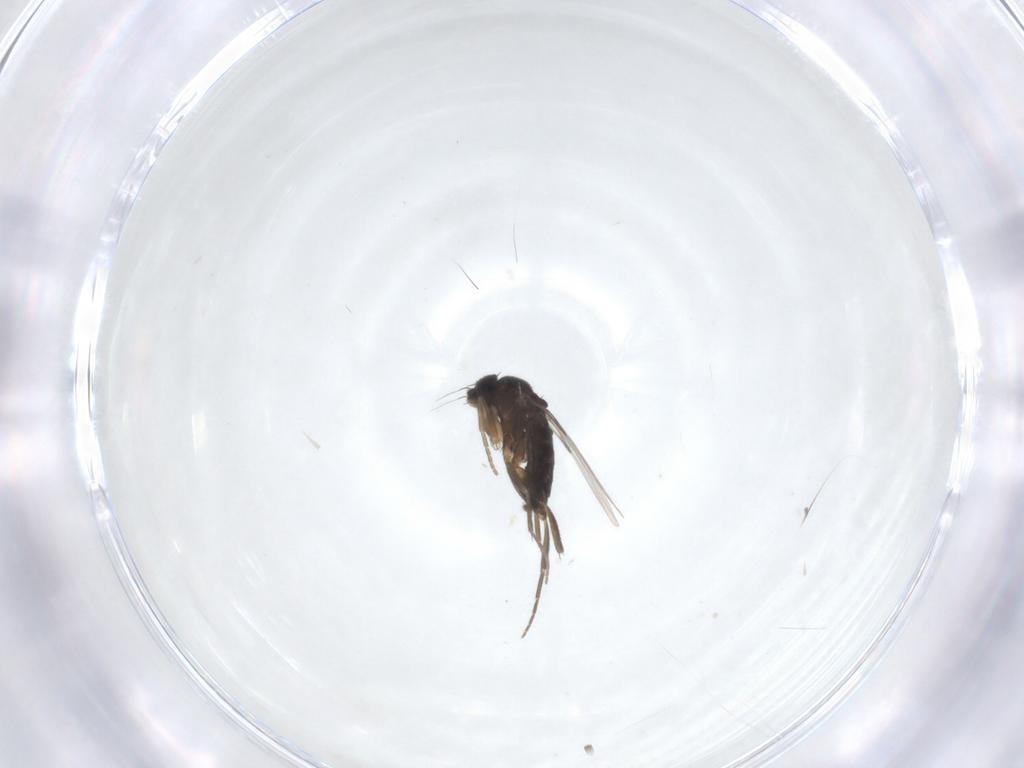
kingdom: Animalia
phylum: Arthropoda
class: Insecta
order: Diptera
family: Phoridae
